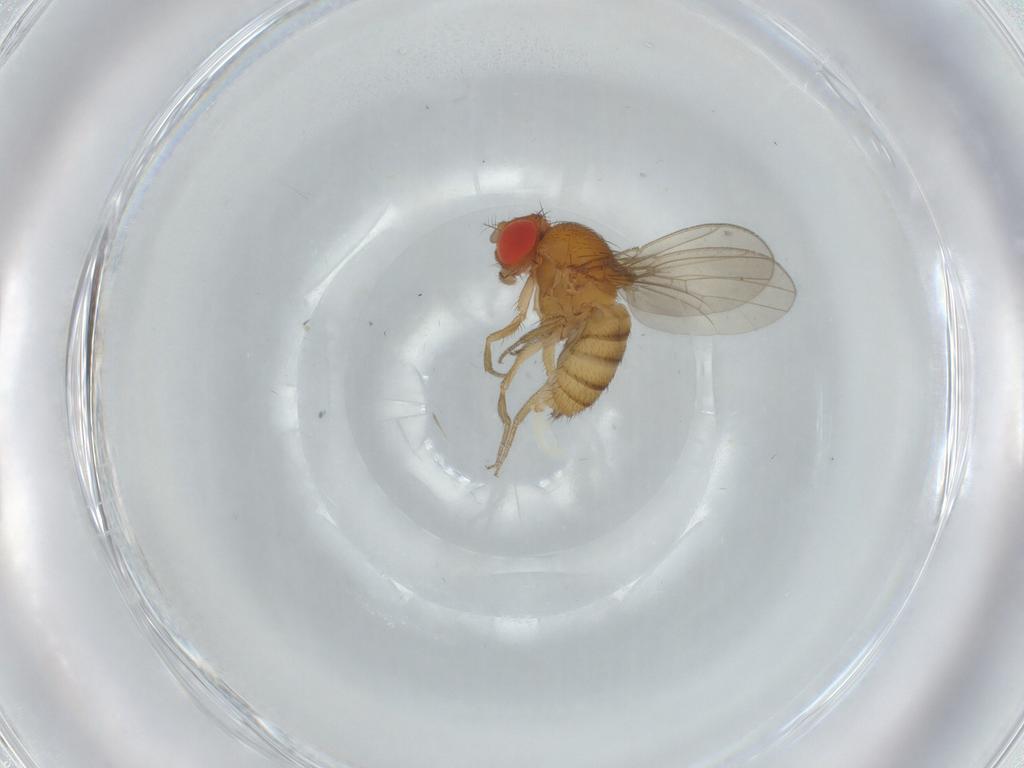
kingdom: Animalia
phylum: Arthropoda
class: Insecta
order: Diptera
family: Drosophilidae
